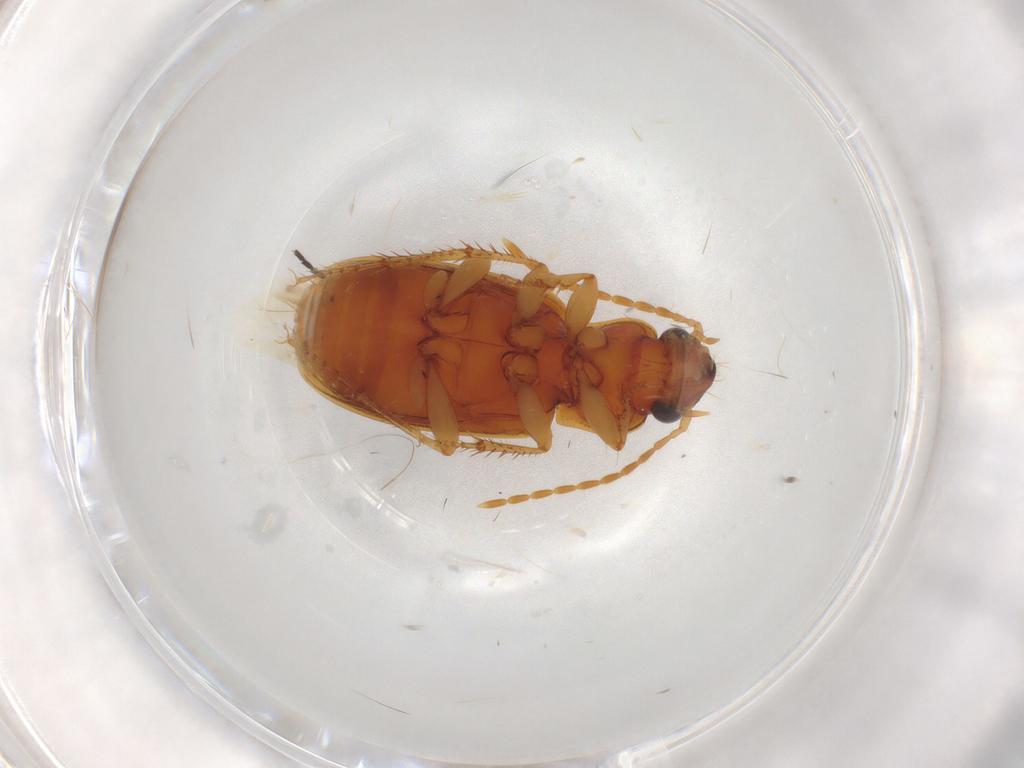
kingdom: Animalia
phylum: Arthropoda
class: Insecta
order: Coleoptera
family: Carabidae
